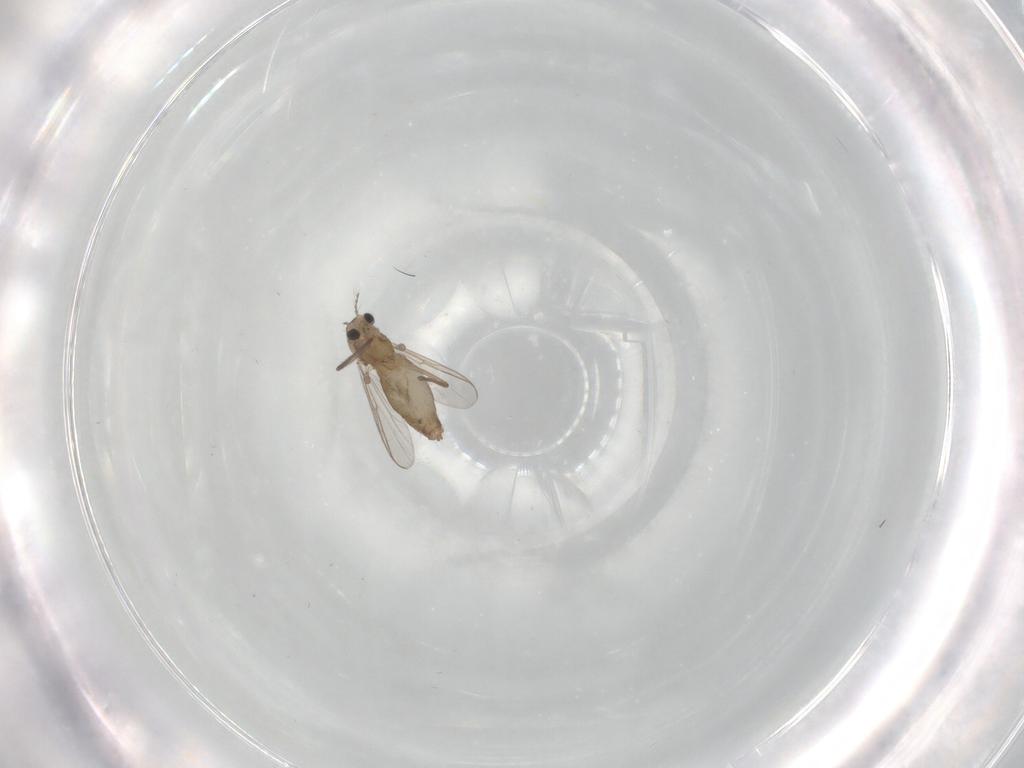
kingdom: Animalia
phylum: Arthropoda
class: Insecta
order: Diptera
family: Chironomidae
